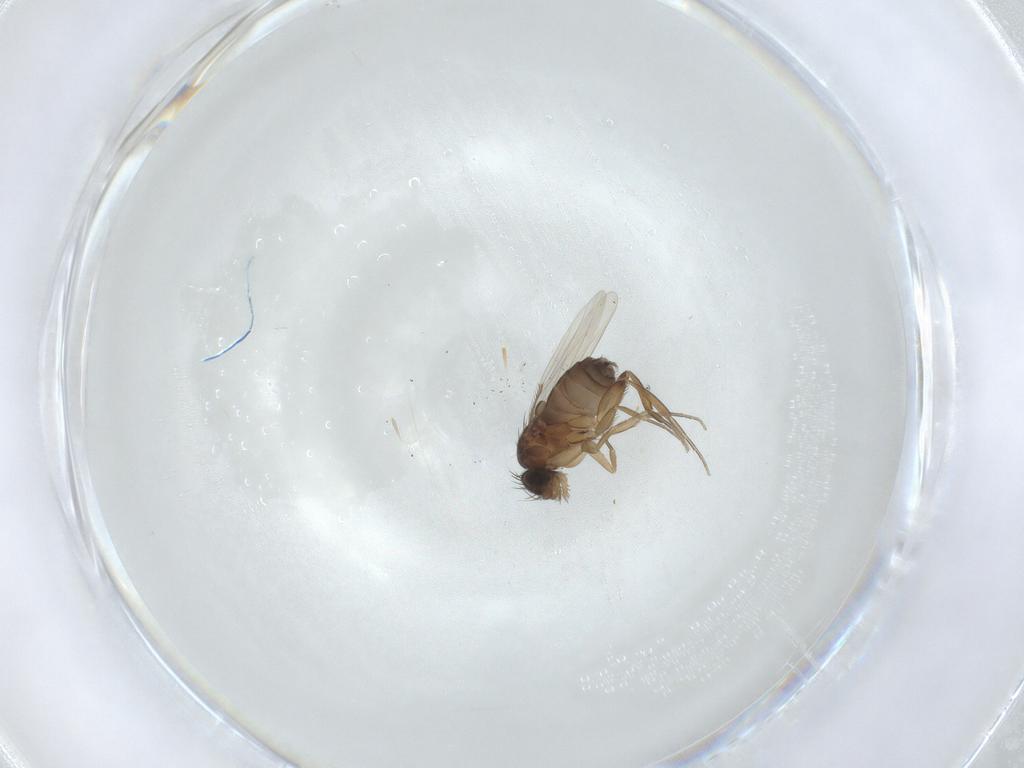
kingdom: Animalia
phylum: Arthropoda
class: Insecta
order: Diptera
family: Phoridae
